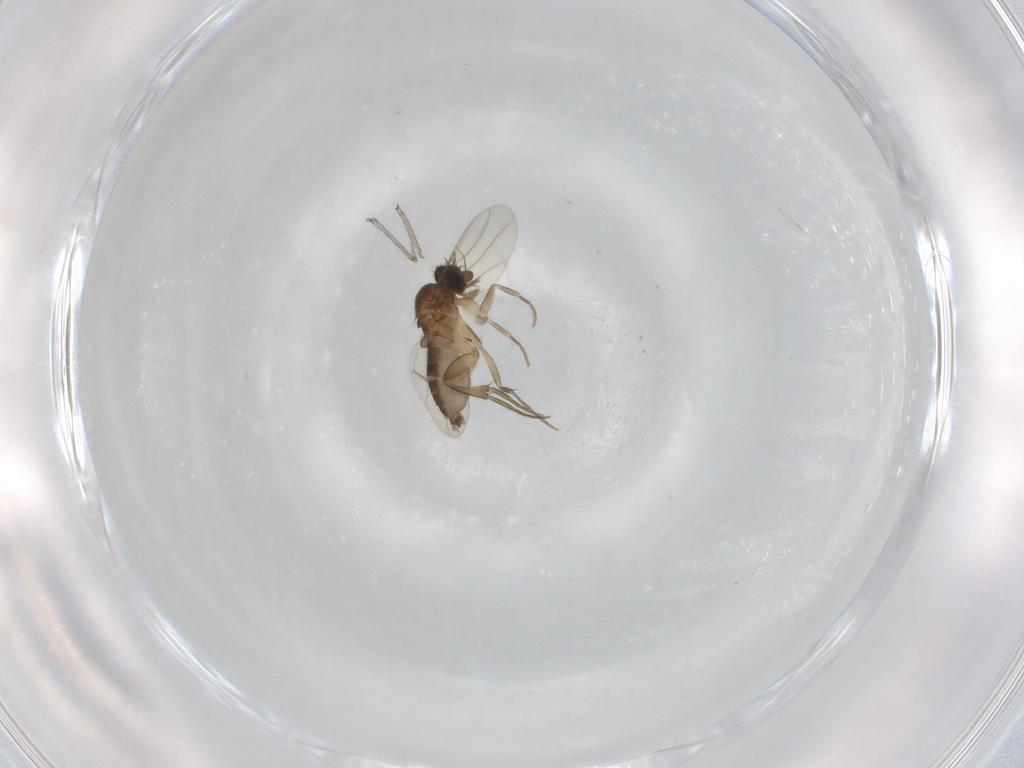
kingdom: Animalia
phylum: Arthropoda
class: Insecta
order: Diptera
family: Phoridae
